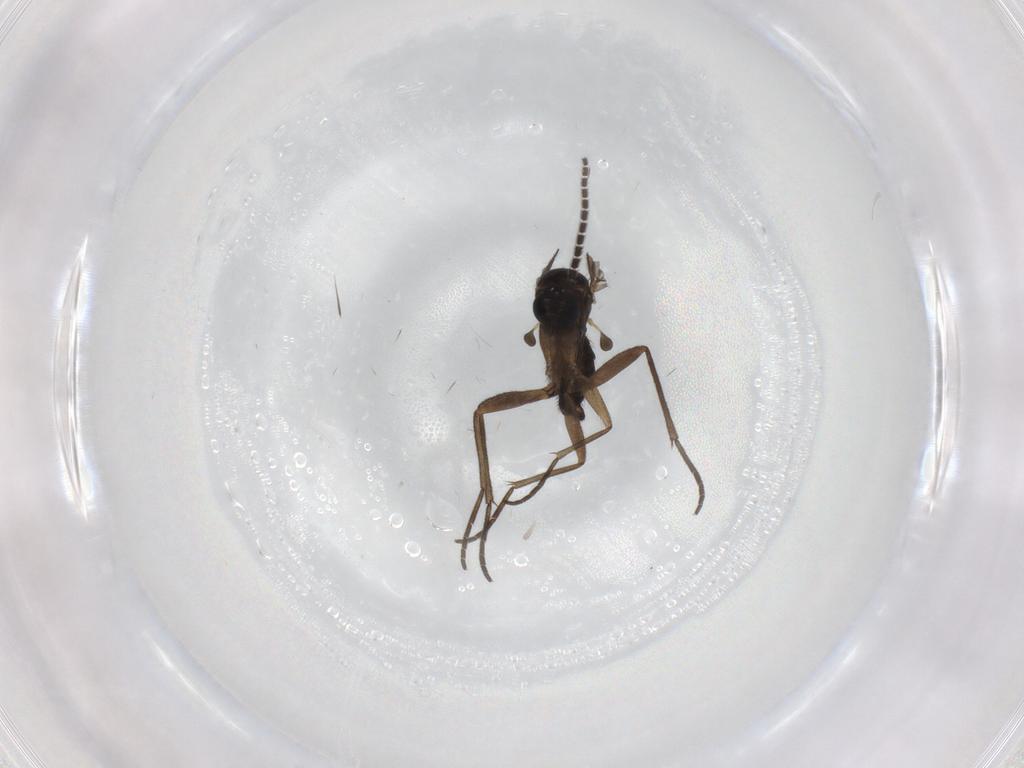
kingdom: Animalia
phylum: Arthropoda
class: Insecta
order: Diptera
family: Sciaridae
